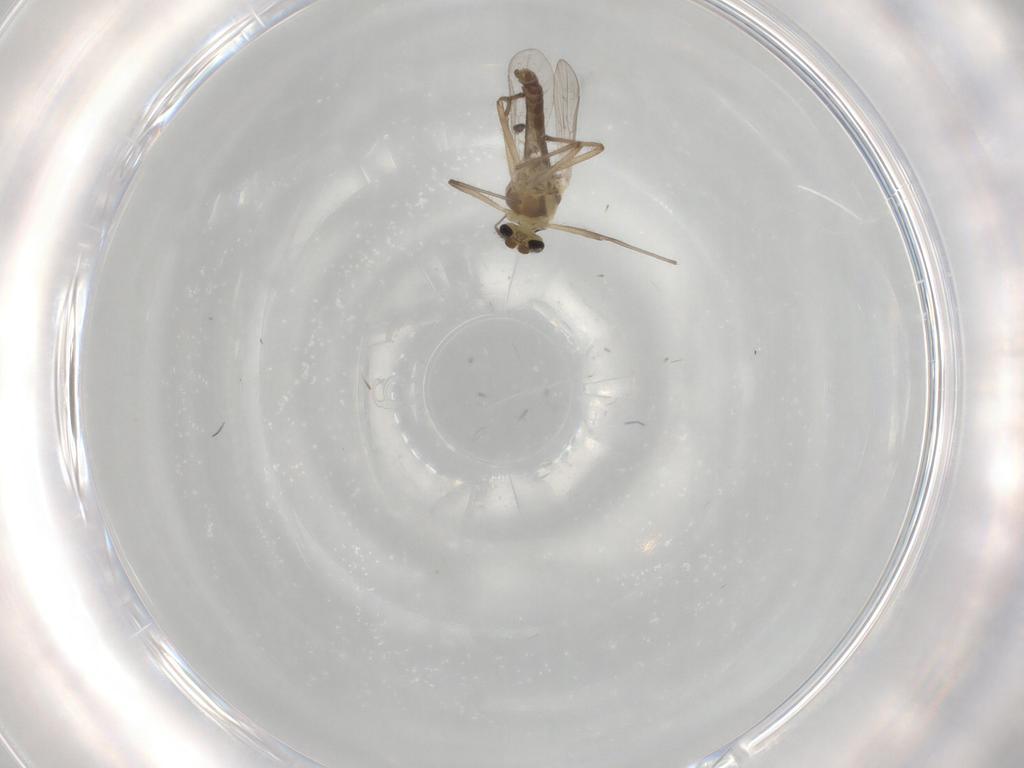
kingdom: Animalia
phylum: Arthropoda
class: Insecta
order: Diptera
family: Chironomidae
